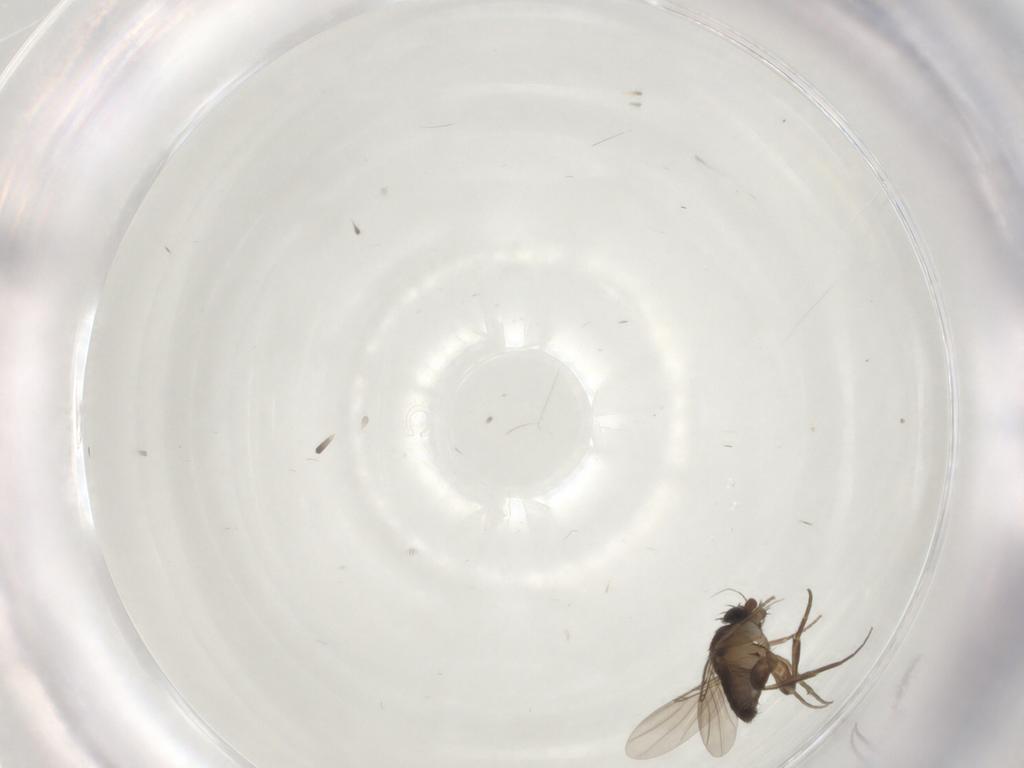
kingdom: Animalia
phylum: Arthropoda
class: Insecta
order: Diptera
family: Phoridae
